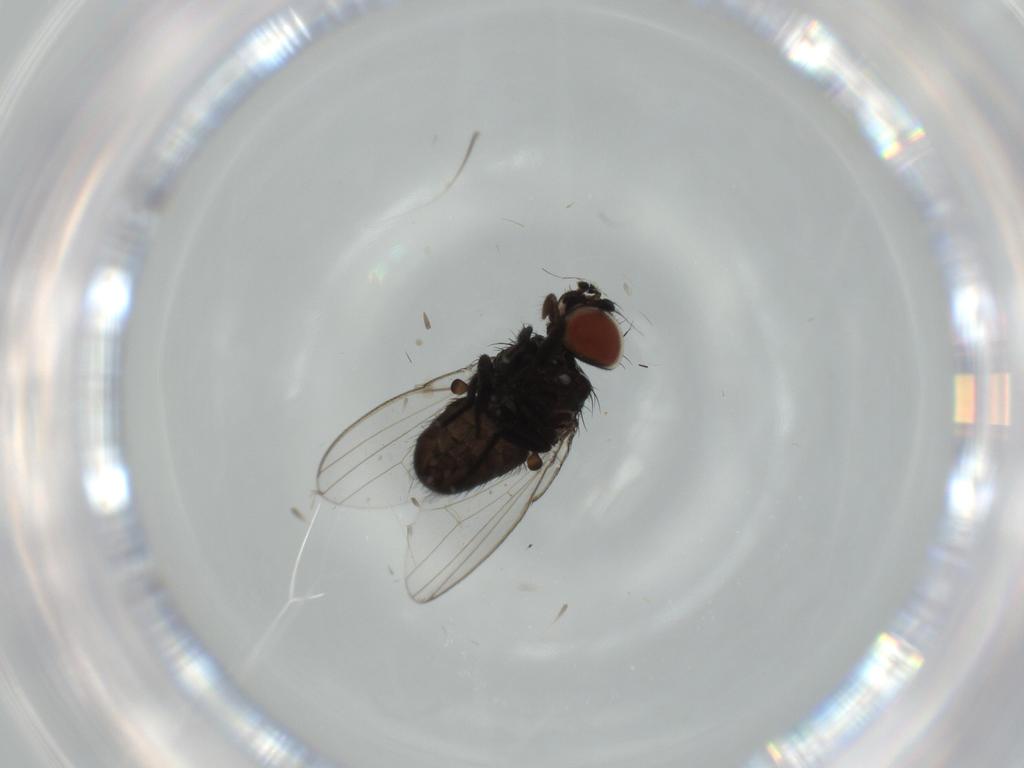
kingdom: Animalia
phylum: Arthropoda
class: Insecta
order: Diptera
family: Milichiidae
